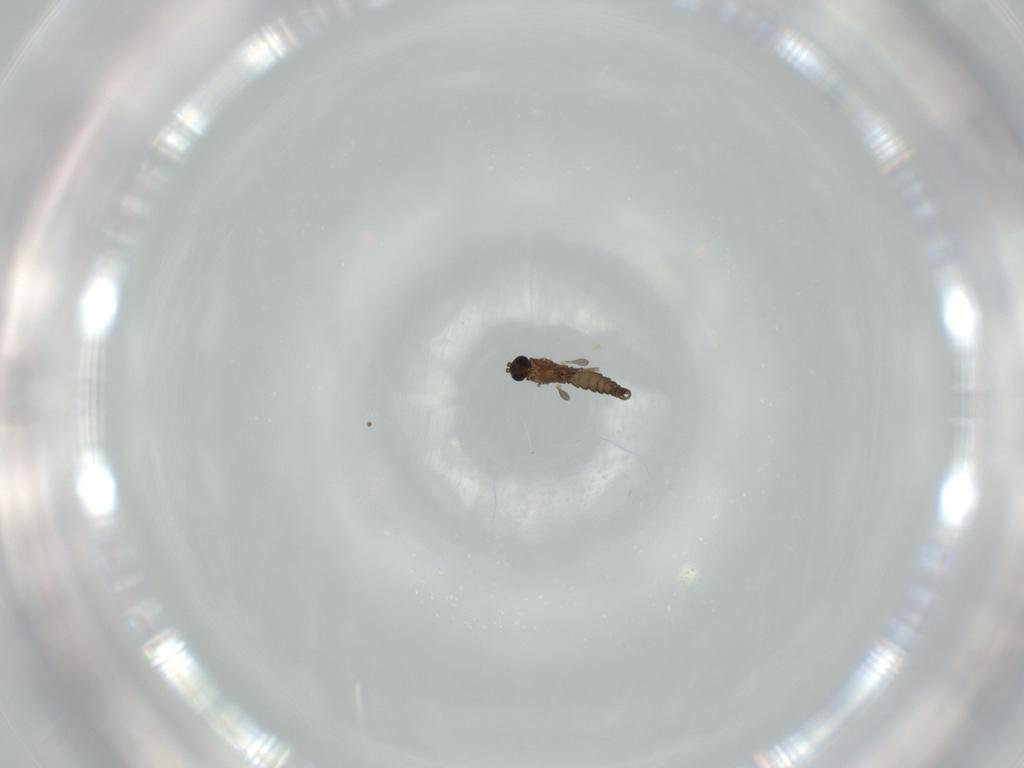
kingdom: Animalia
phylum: Arthropoda
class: Insecta
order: Diptera
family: Sciaridae
